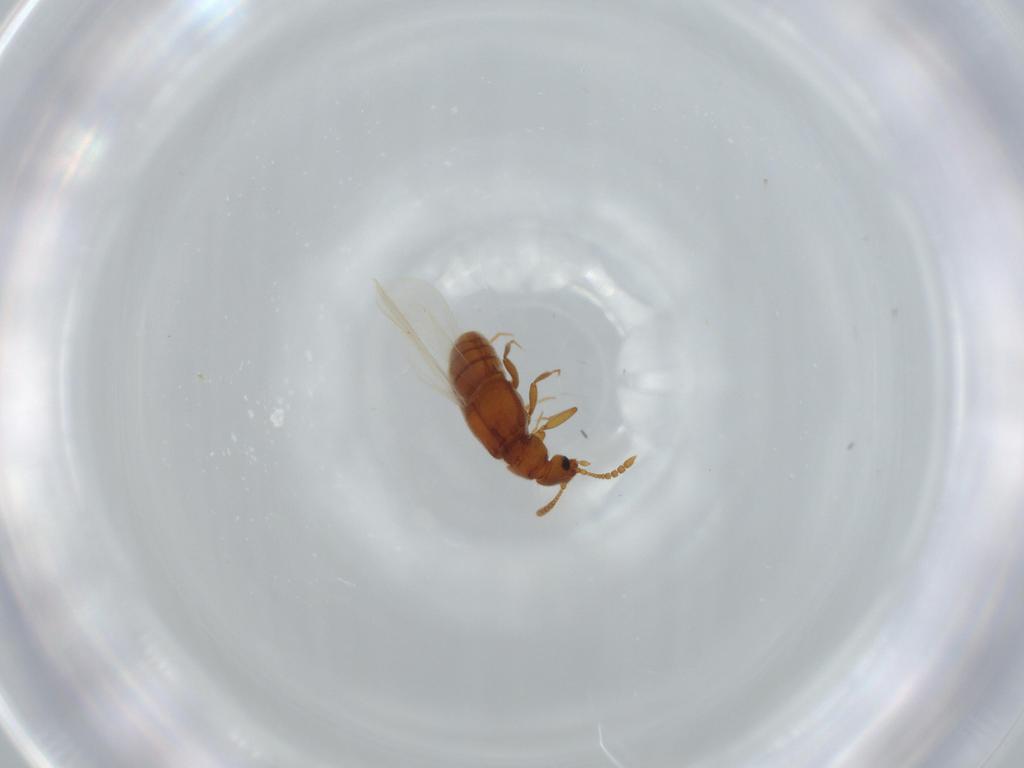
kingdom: Animalia
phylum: Arthropoda
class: Insecta
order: Coleoptera
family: Staphylinidae
